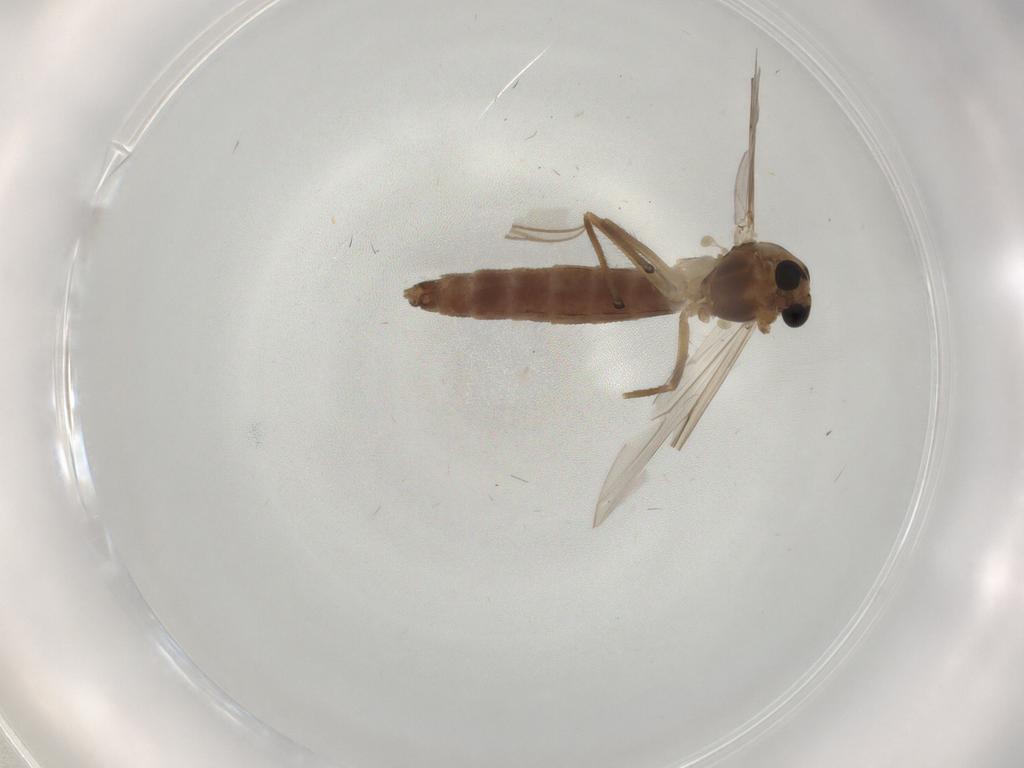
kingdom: Animalia
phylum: Arthropoda
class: Insecta
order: Diptera
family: Chironomidae
